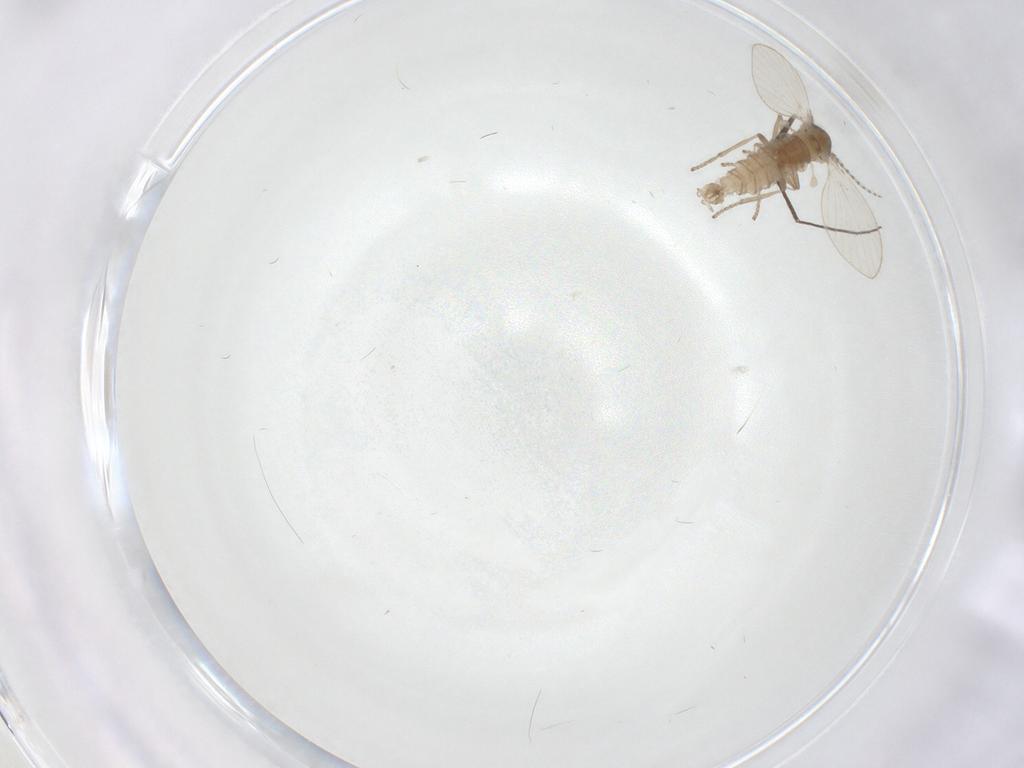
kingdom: Animalia
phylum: Arthropoda
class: Insecta
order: Diptera
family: Psychodidae
